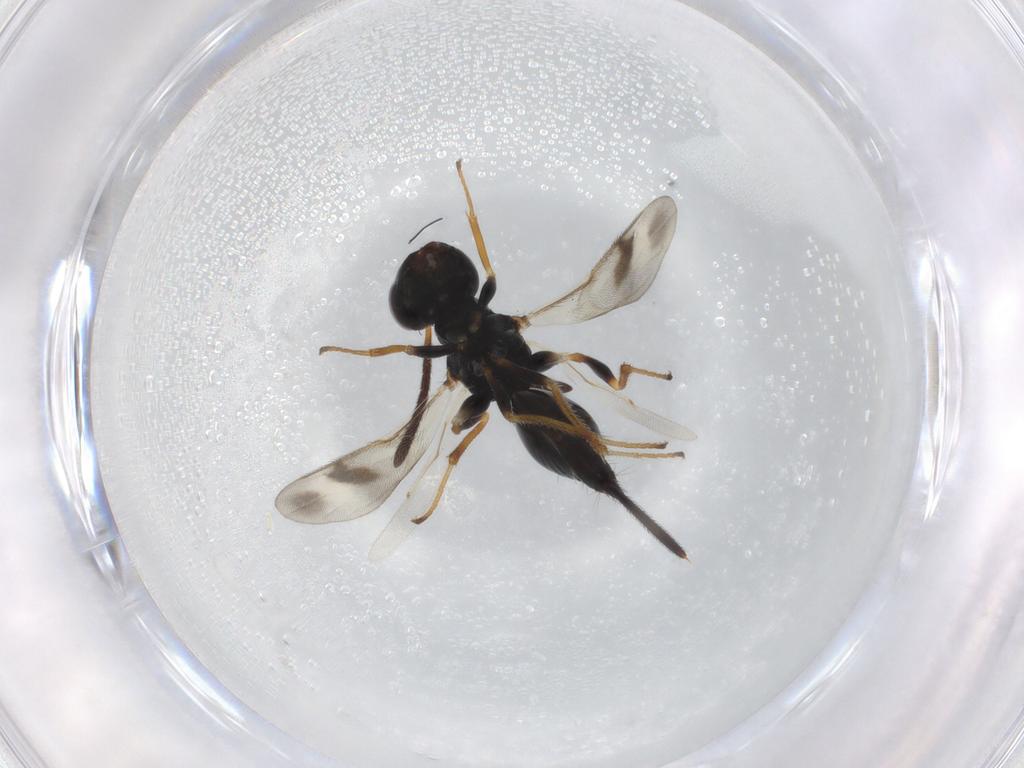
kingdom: Animalia
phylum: Arthropoda
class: Insecta
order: Hymenoptera
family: Diparidae
